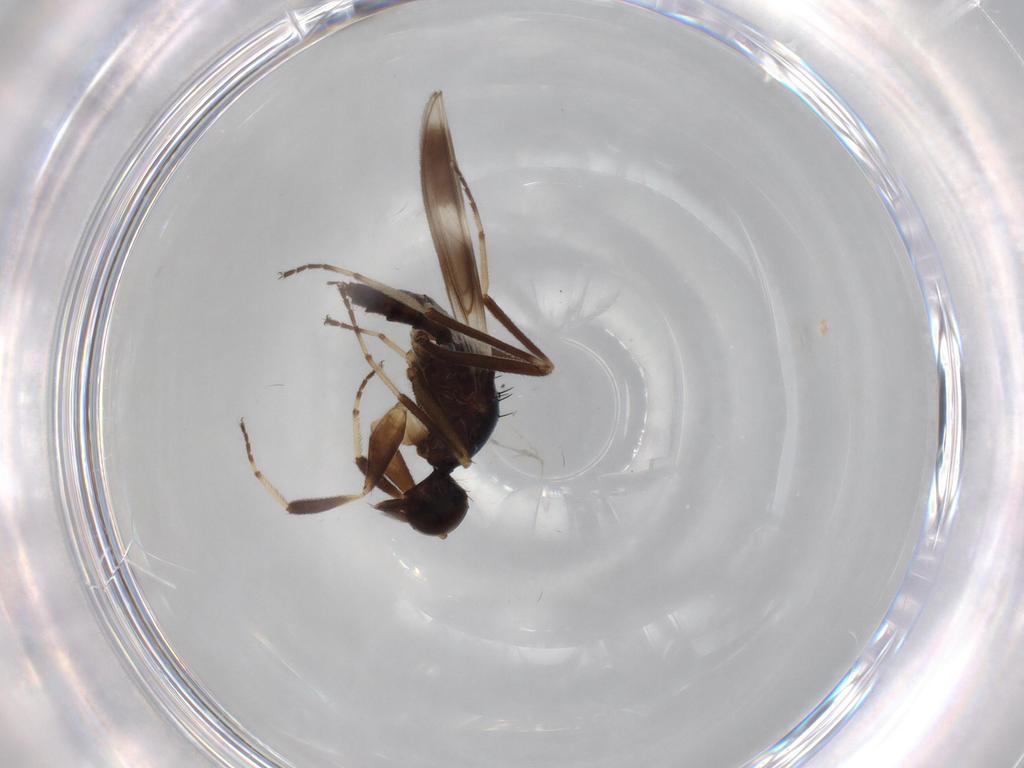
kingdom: Animalia
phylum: Arthropoda
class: Insecta
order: Diptera
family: Hybotidae
